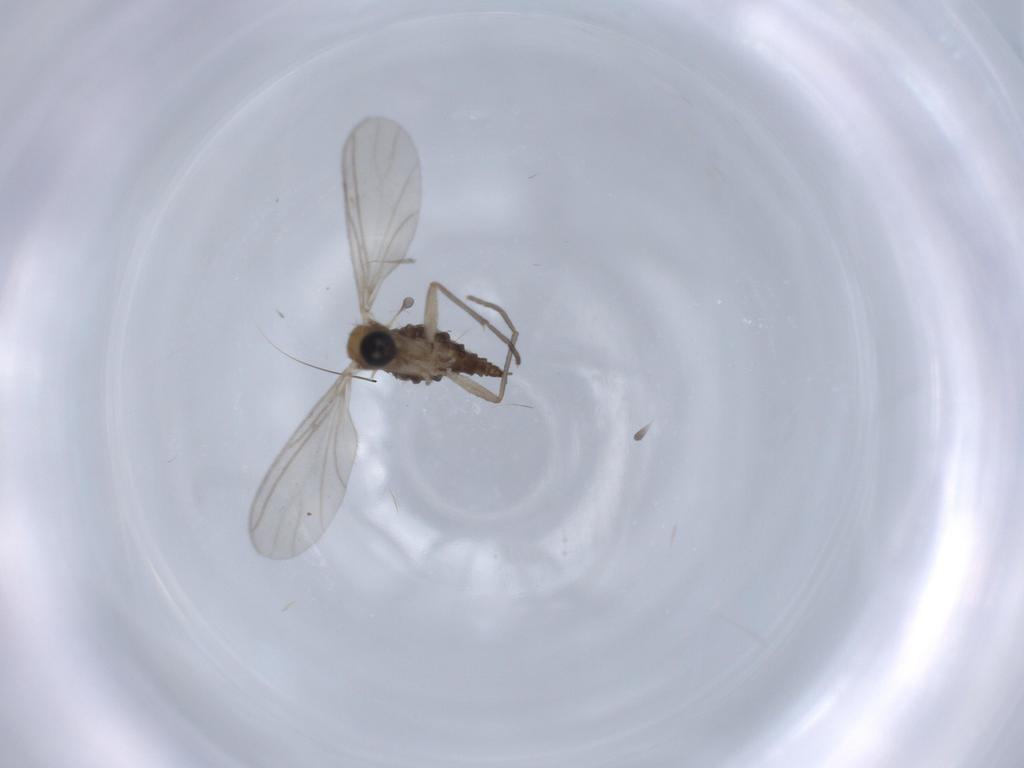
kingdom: Animalia
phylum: Arthropoda
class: Insecta
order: Diptera
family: Sciaridae
